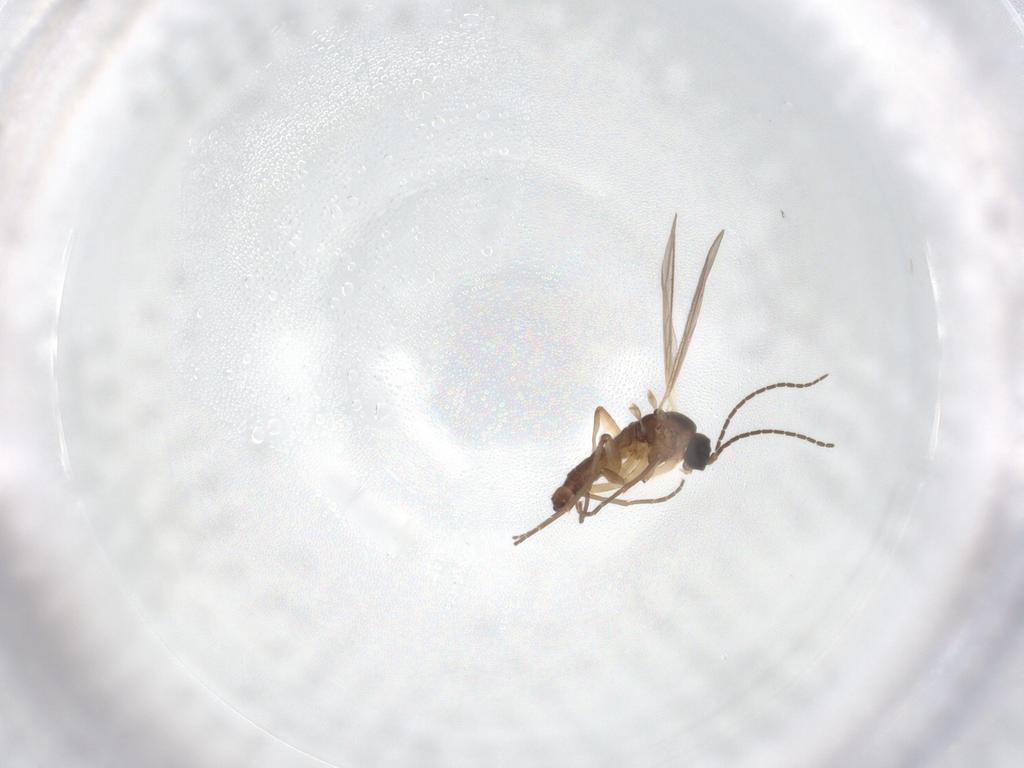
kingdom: Animalia
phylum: Arthropoda
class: Insecta
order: Diptera
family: Sciaridae
